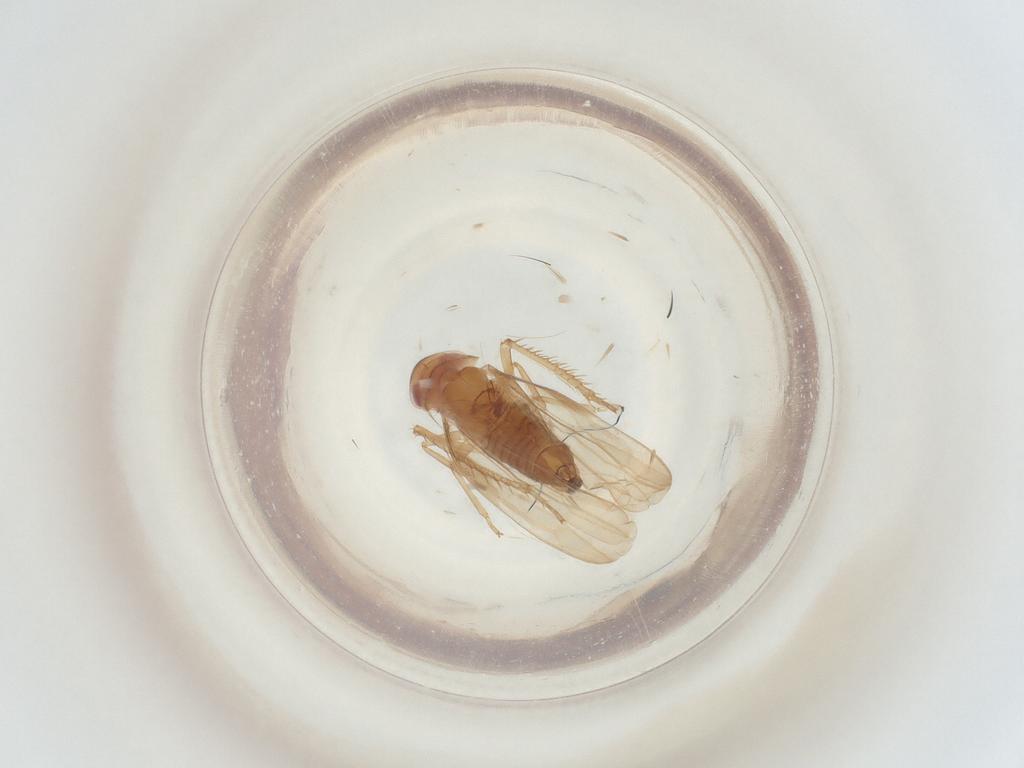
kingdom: Animalia
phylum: Arthropoda
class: Insecta
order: Hemiptera
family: Cicadellidae
